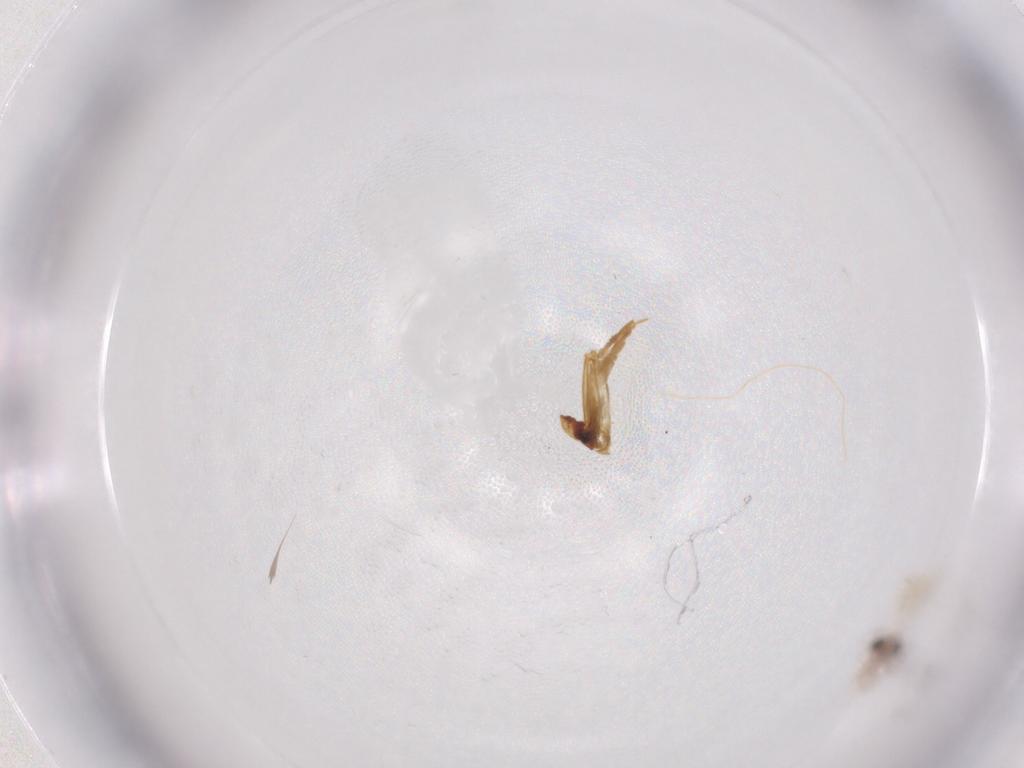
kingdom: Animalia
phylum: Arthropoda
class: Insecta
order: Diptera
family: Chironomidae
